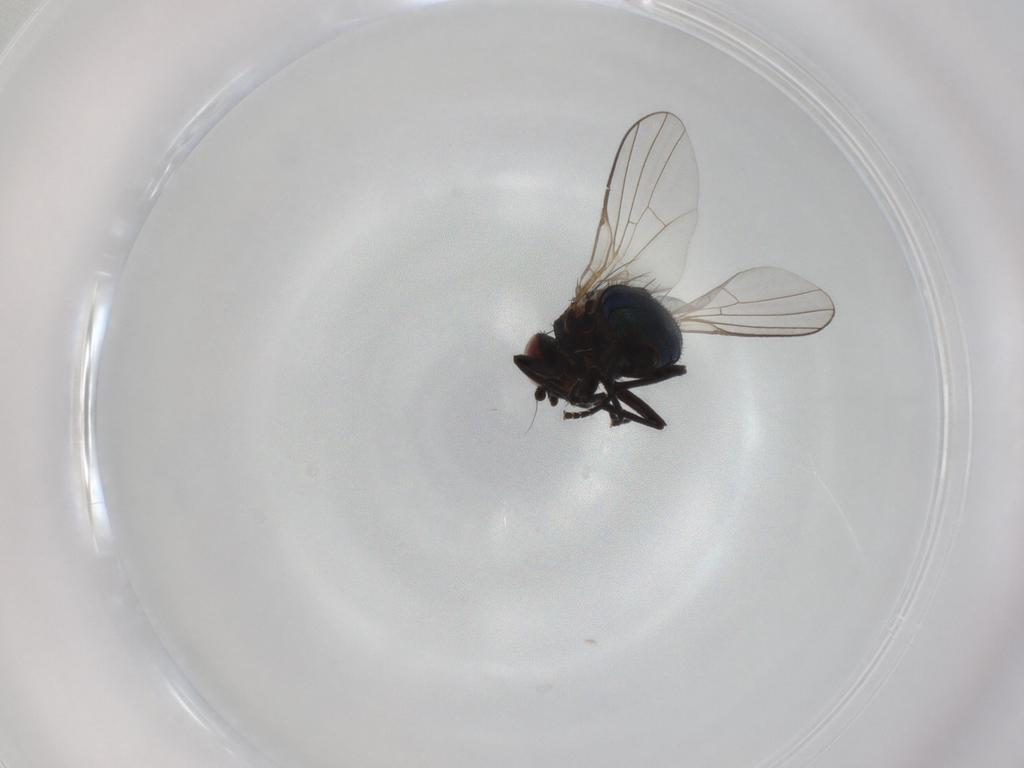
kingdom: Animalia
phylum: Arthropoda
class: Insecta
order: Diptera
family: Agromyzidae
